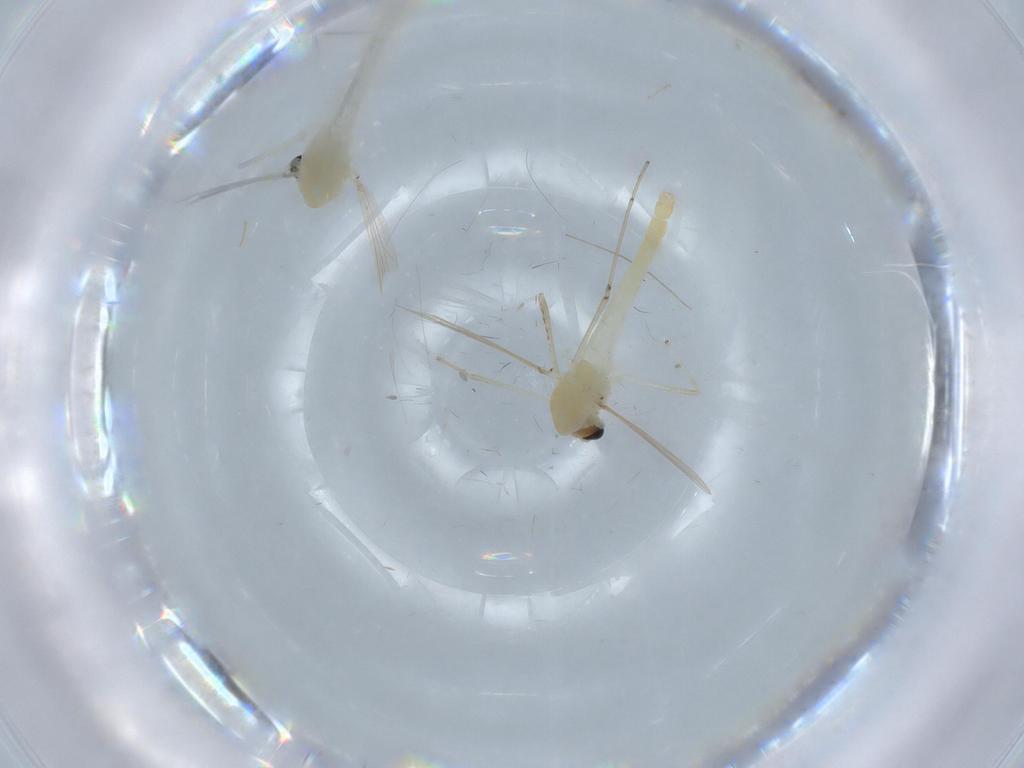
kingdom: Animalia
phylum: Arthropoda
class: Insecta
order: Diptera
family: Chironomidae
